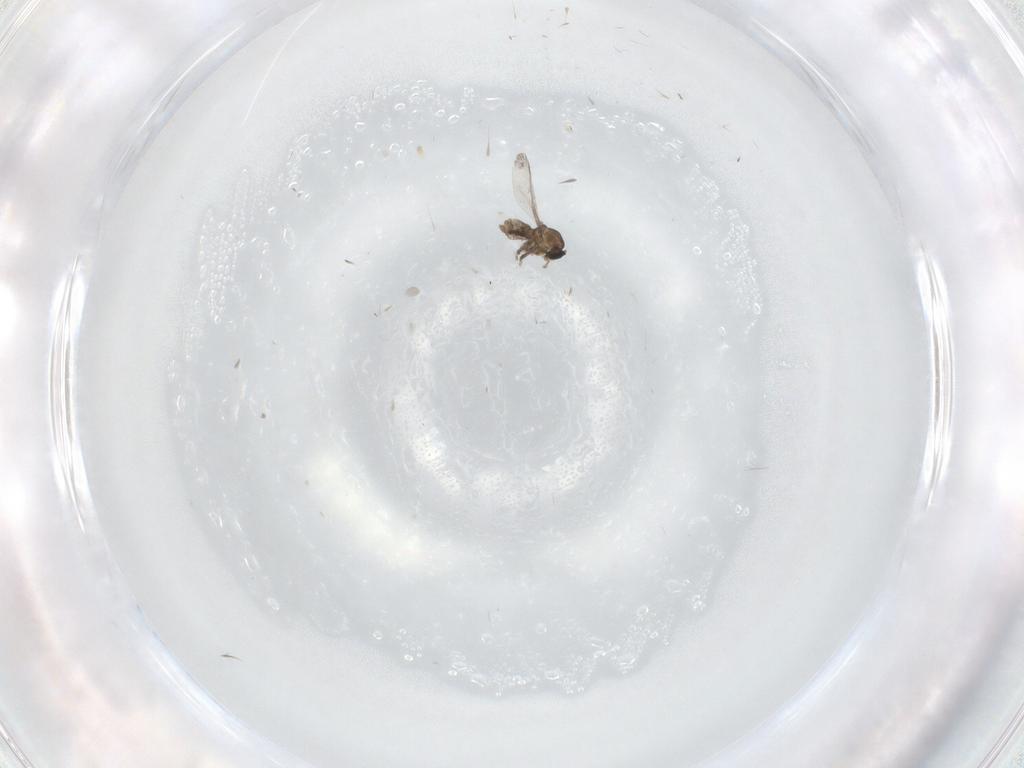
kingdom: Animalia
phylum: Arthropoda
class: Insecta
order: Diptera
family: Cecidomyiidae
